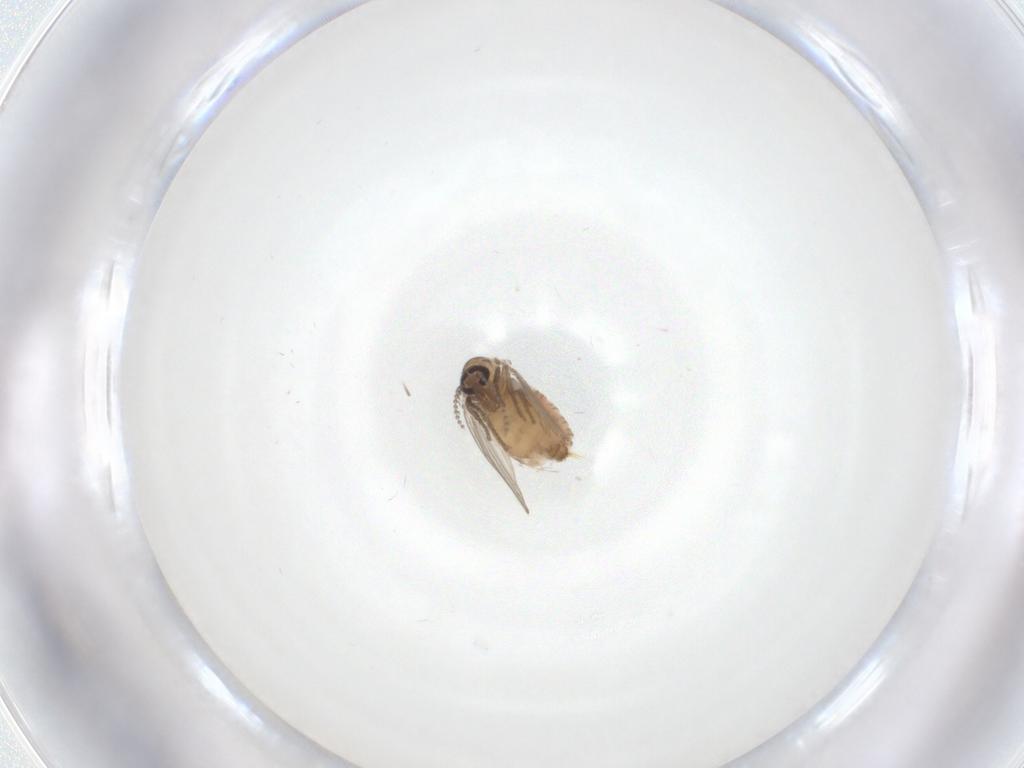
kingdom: Animalia
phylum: Arthropoda
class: Insecta
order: Diptera
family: Psychodidae
